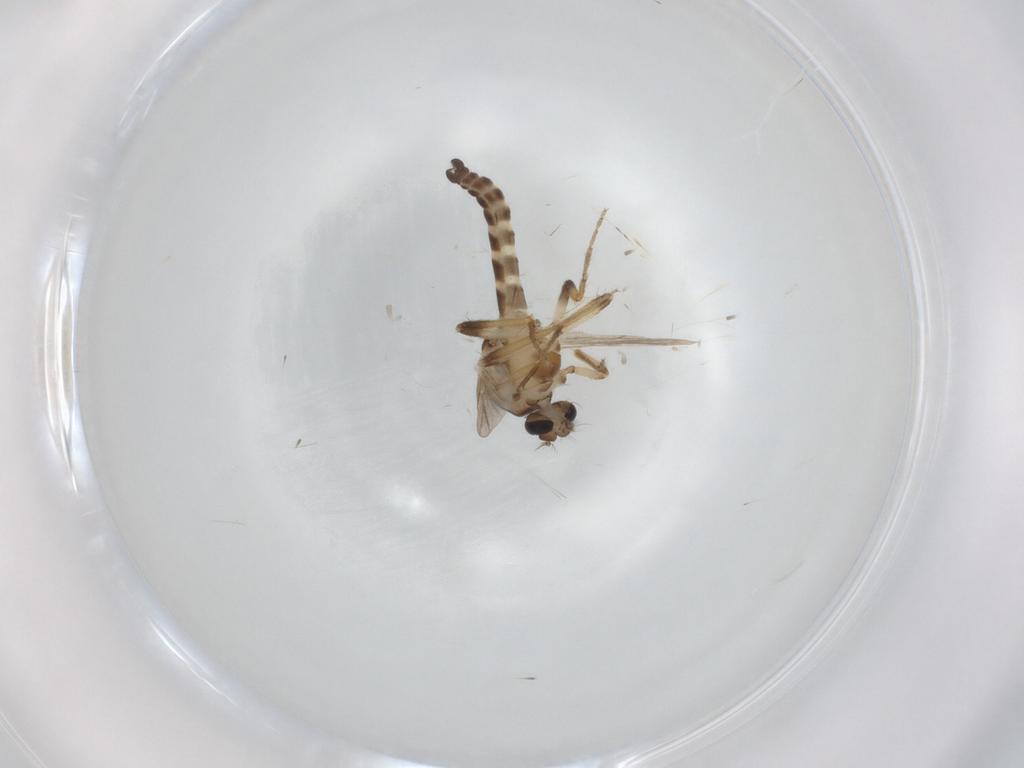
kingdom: Animalia
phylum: Arthropoda
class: Insecta
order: Diptera
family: Ceratopogonidae
